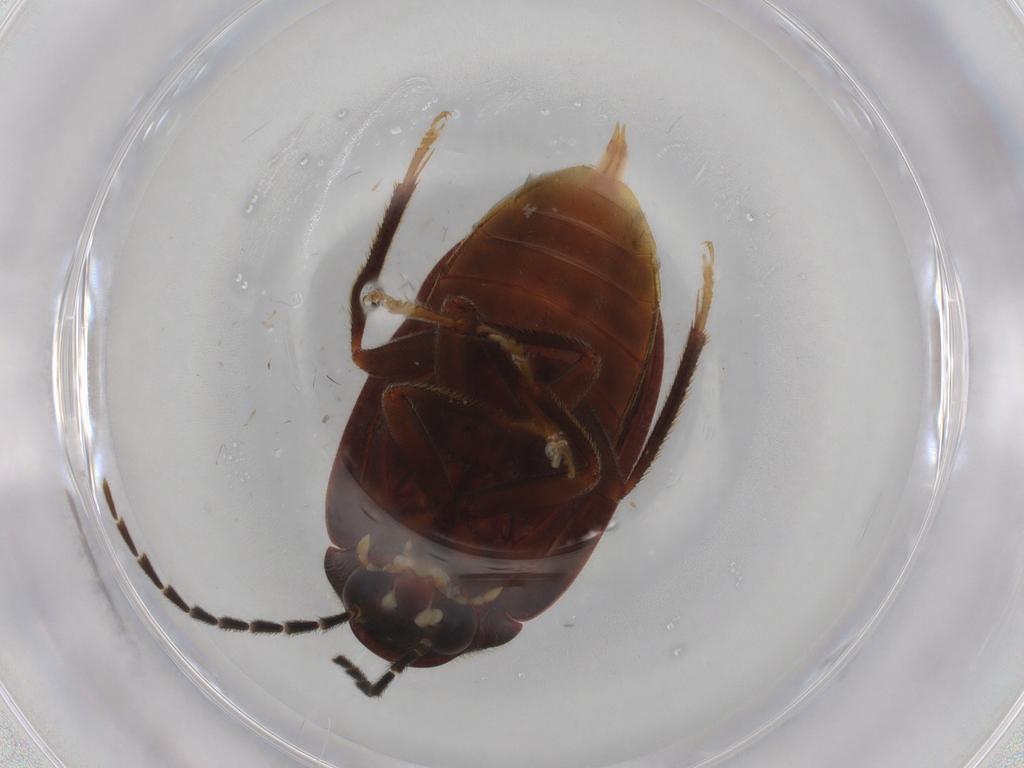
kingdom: Animalia
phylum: Arthropoda
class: Insecta
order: Coleoptera
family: Ptilodactylidae
